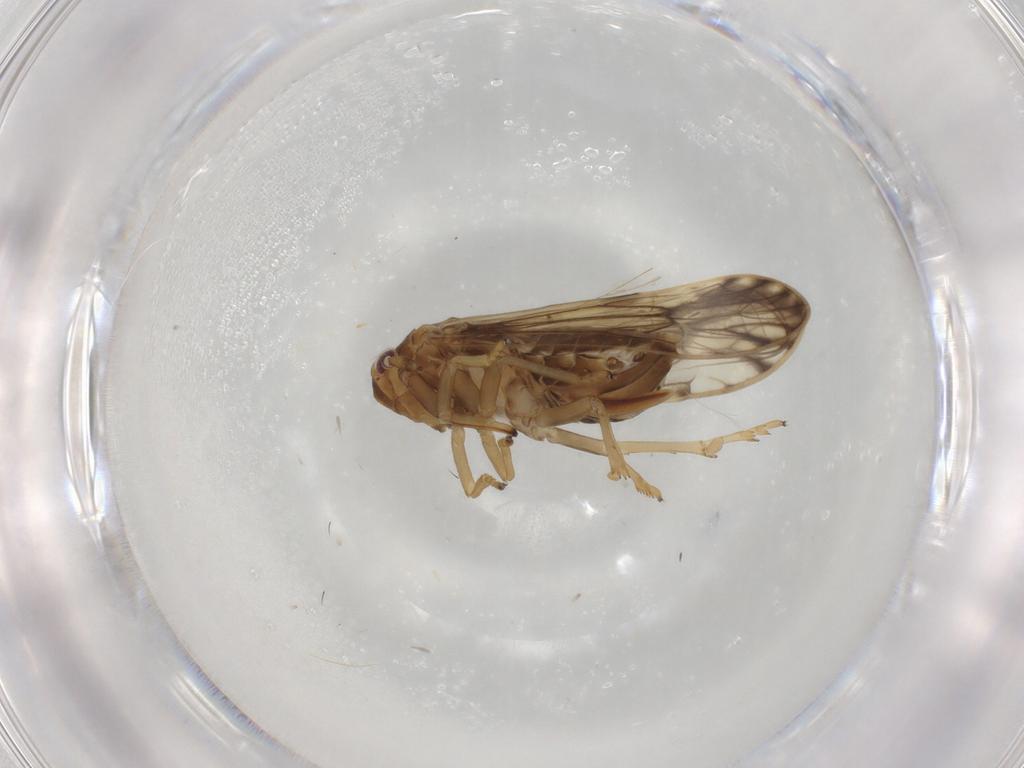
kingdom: Animalia
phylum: Arthropoda
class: Insecta
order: Hemiptera
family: Delphacidae
